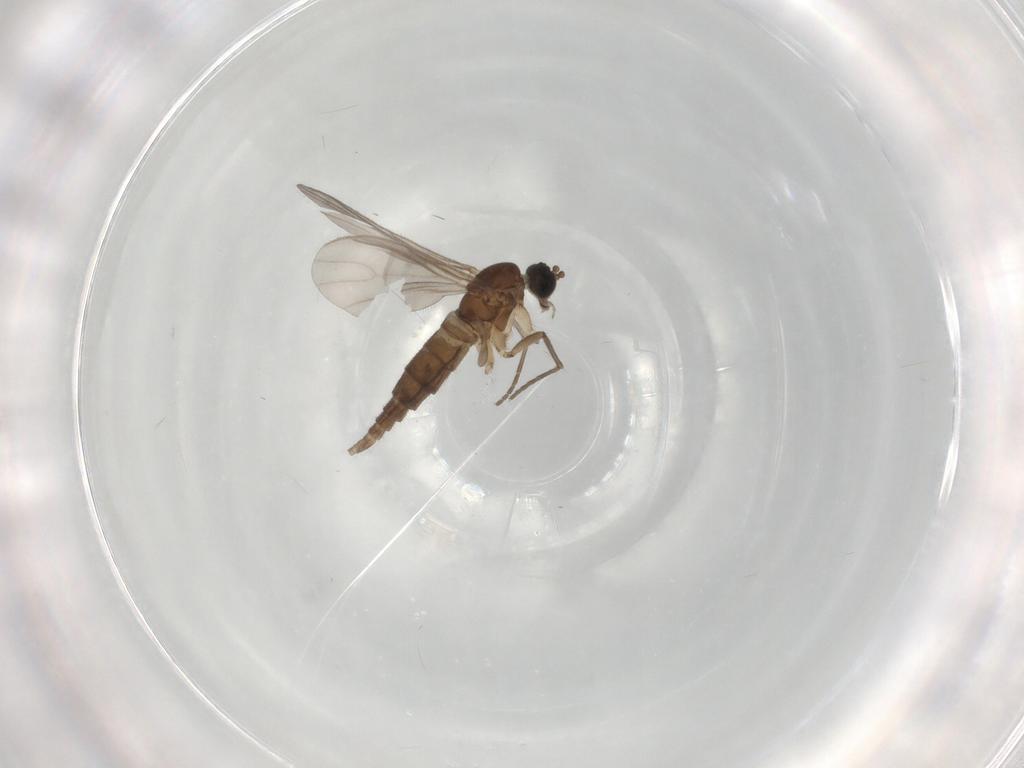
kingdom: Animalia
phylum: Arthropoda
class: Insecta
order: Diptera
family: Sciaridae
